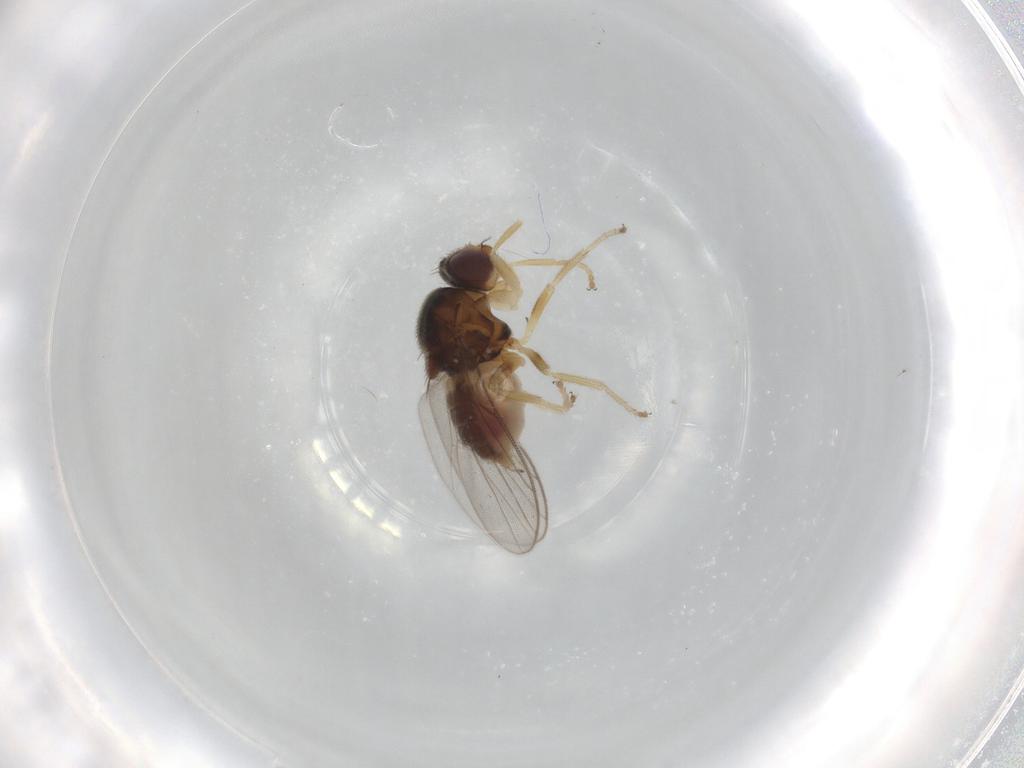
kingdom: Animalia
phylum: Arthropoda
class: Insecta
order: Diptera
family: Chloropidae
